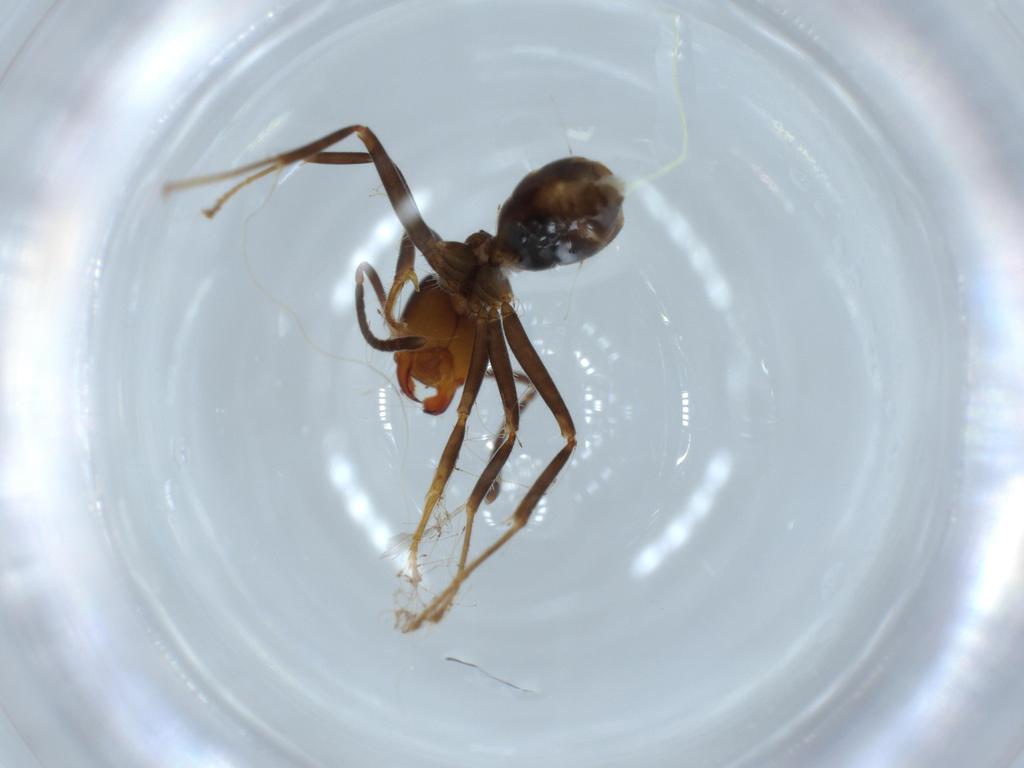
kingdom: Animalia
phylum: Arthropoda
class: Insecta
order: Hymenoptera
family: Formicidae
